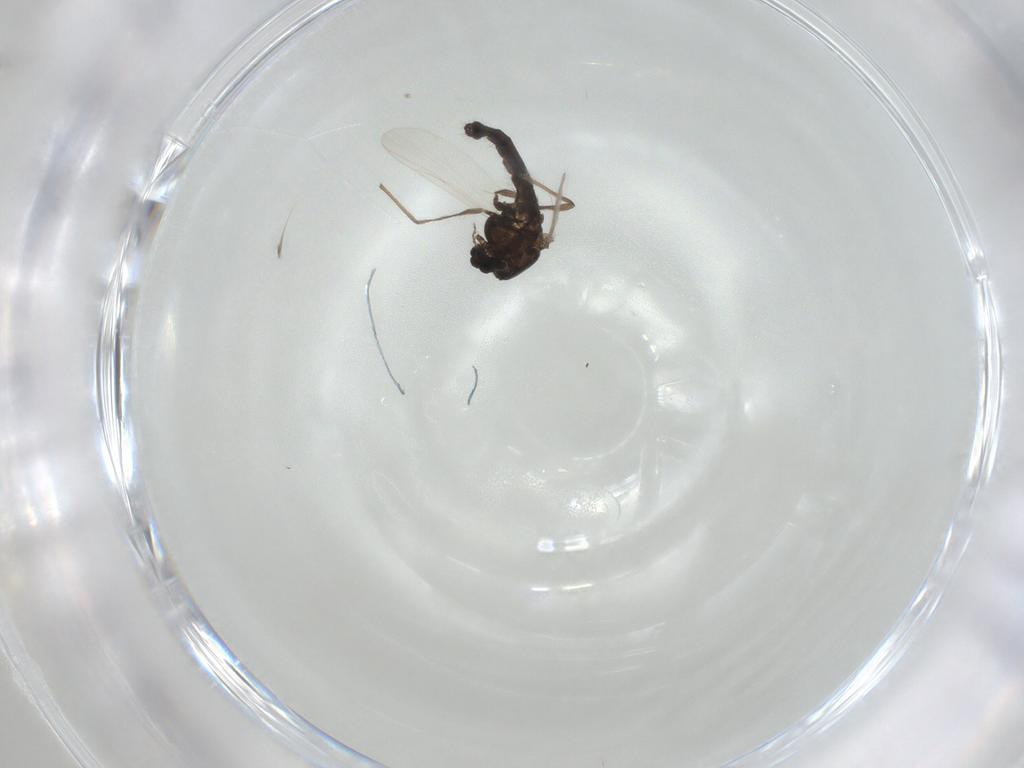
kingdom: Animalia
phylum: Arthropoda
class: Insecta
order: Diptera
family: Chironomidae
